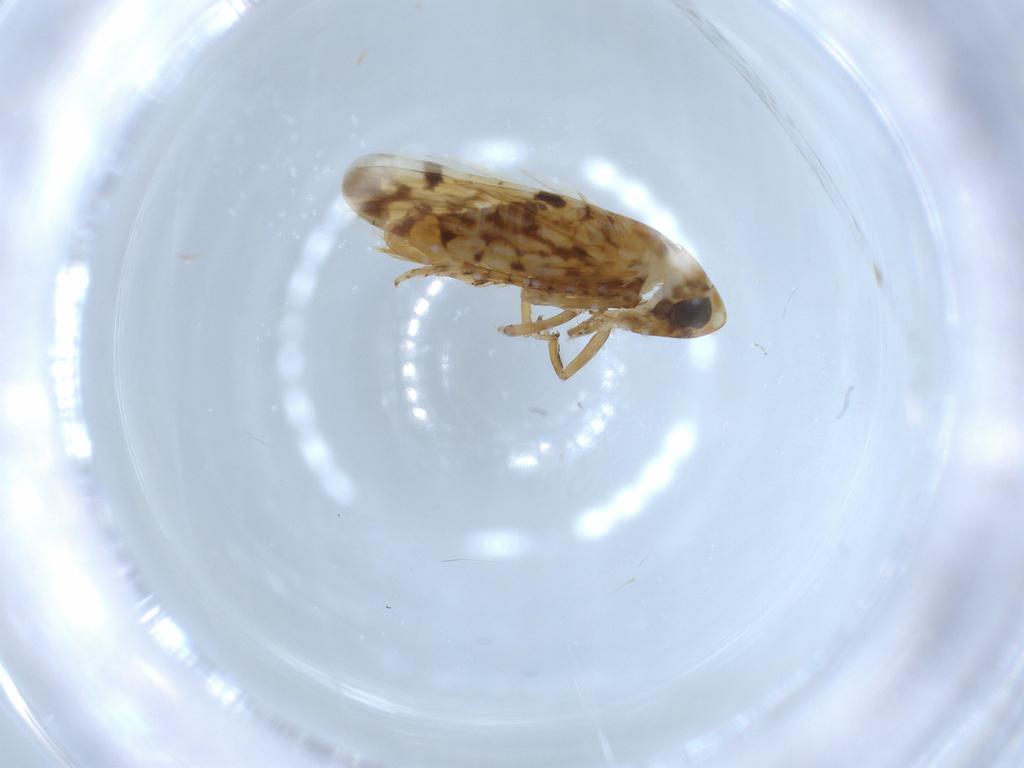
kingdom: Animalia
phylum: Arthropoda
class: Insecta
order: Hemiptera
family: Cicadellidae
